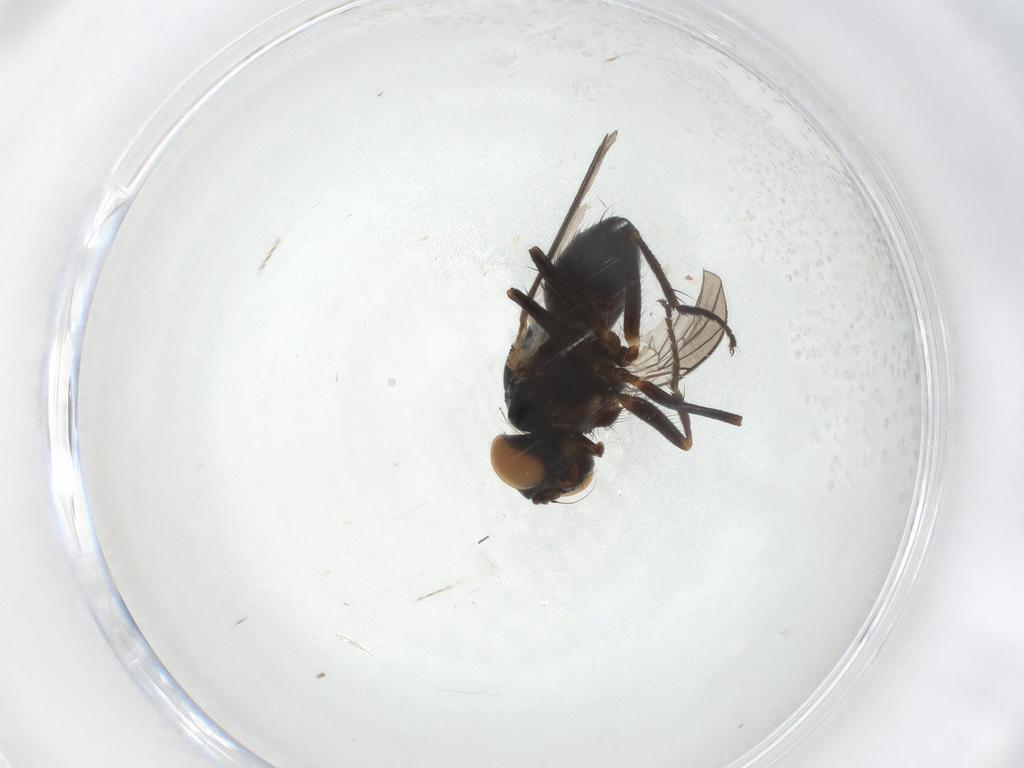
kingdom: Animalia
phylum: Arthropoda
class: Insecta
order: Diptera
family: Muscidae
